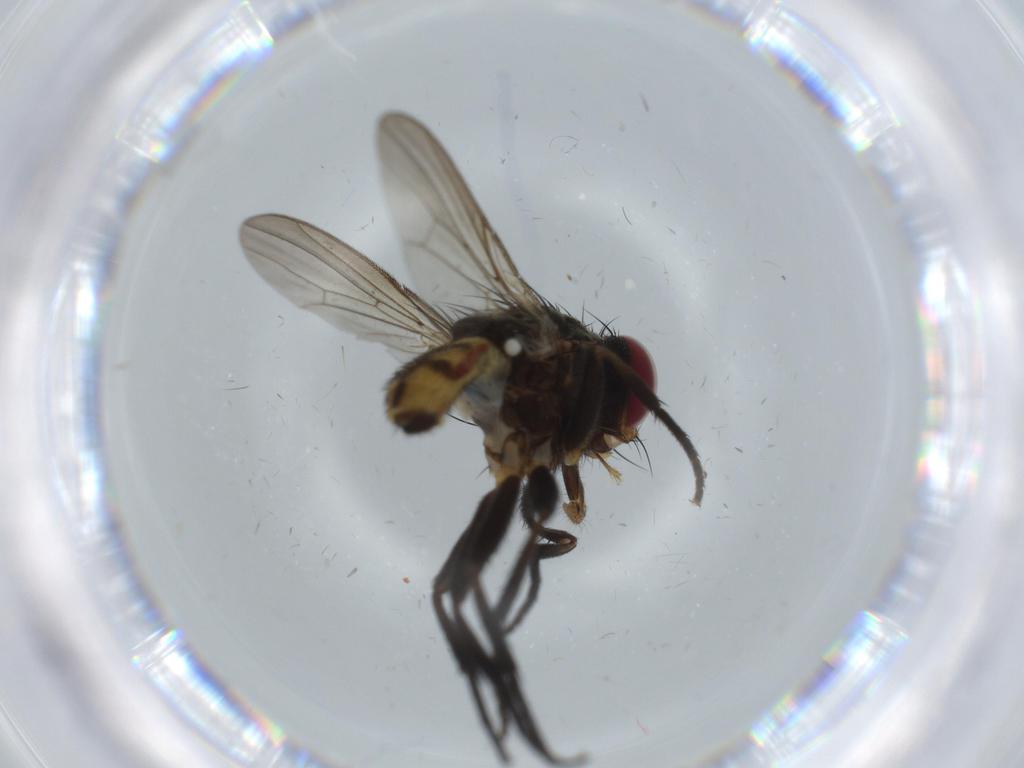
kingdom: Animalia
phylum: Arthropoda
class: Insecta
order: Diptera
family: Anthomyiidae
